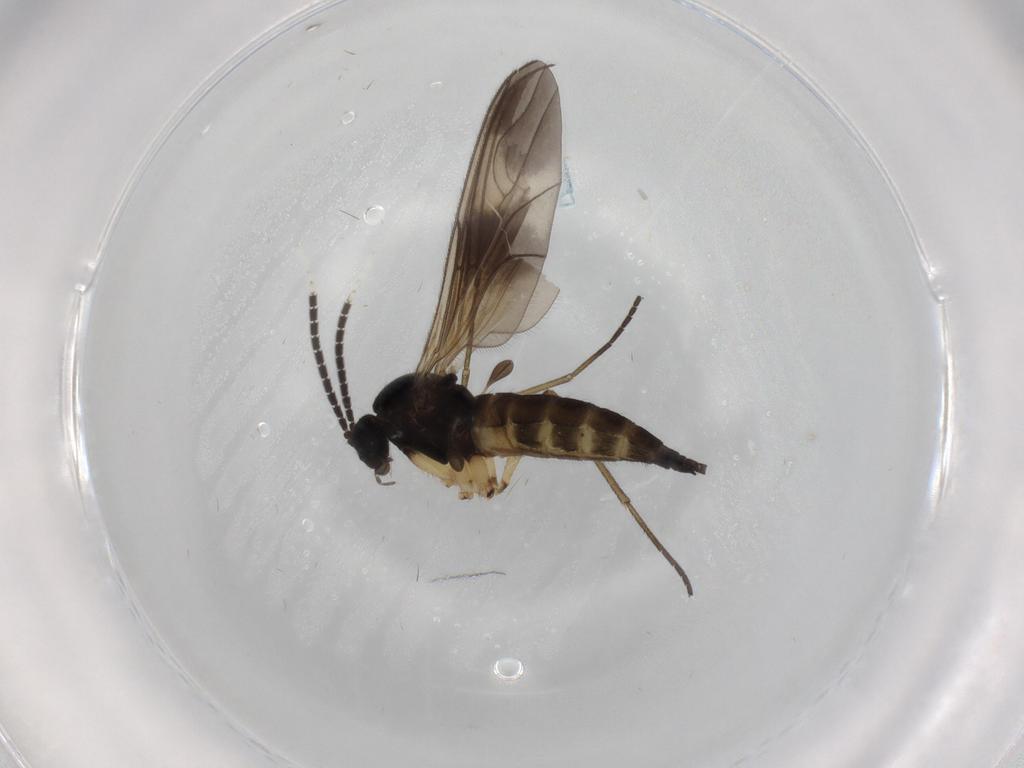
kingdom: Animalia
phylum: Arthropoda
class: Insecta
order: Diptera
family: Sciaridae
